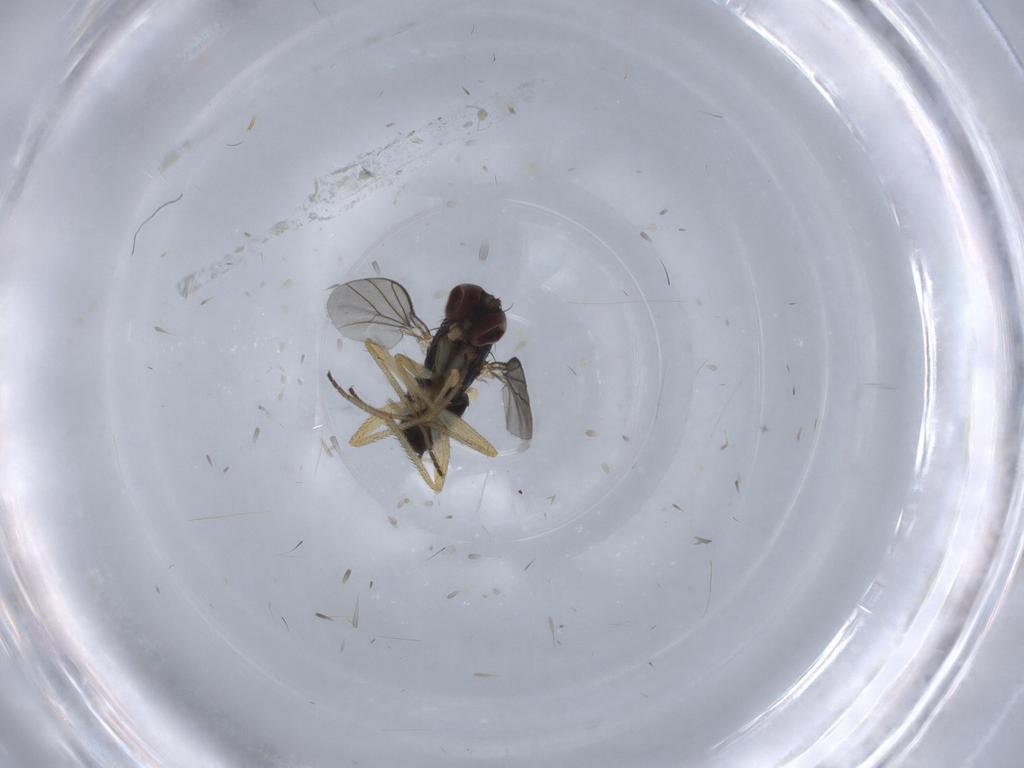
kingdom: Animalia
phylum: Arthropoda
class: Insecta
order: Diptera
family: Dolichopodidae
